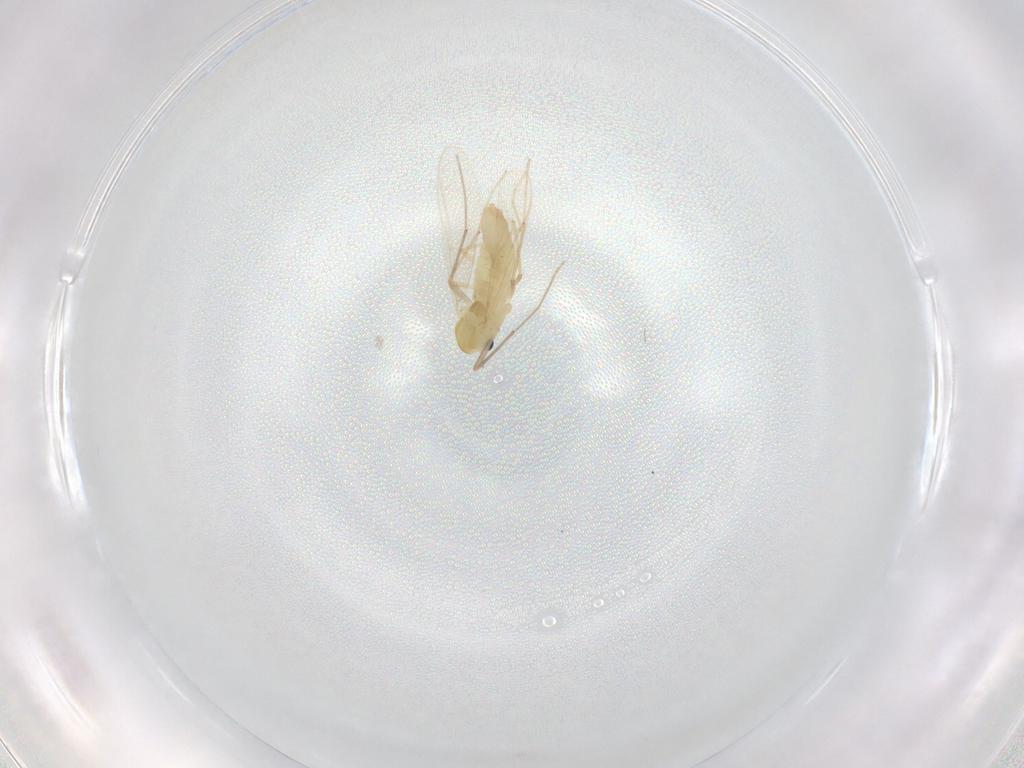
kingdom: Animalia
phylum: Arthropoda
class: Insecta
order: Diptera
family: Chironomidae
